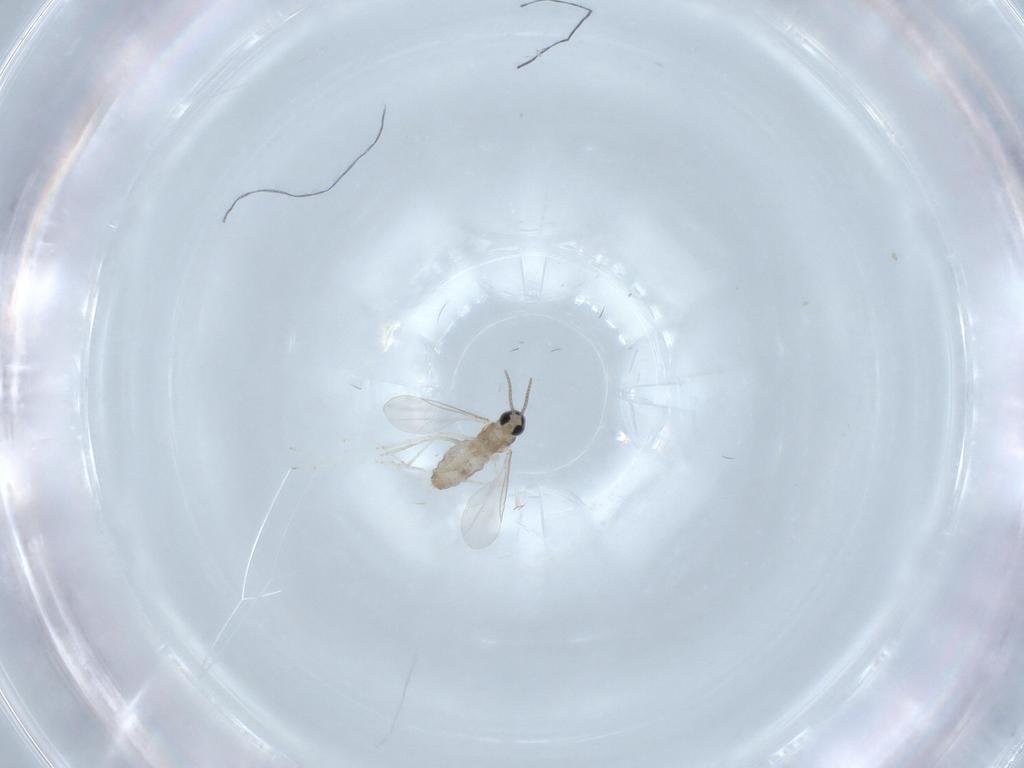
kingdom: Animalia
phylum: Arthropoda
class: Insecta
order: Diptera
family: Cecidomyiidae
